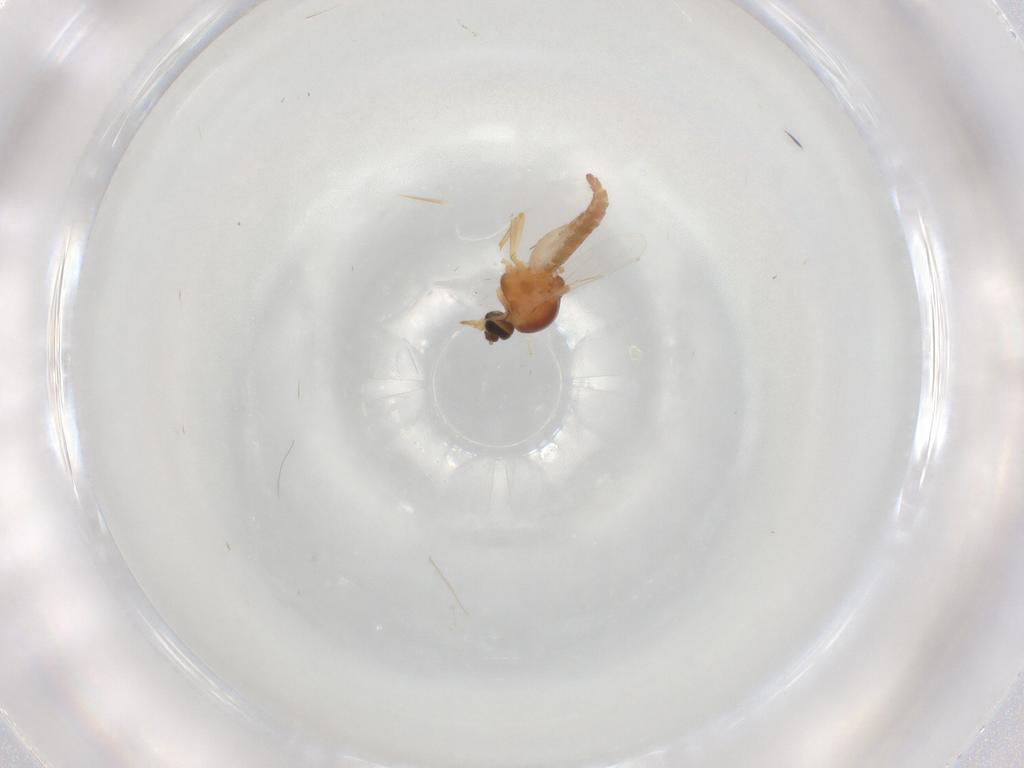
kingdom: Animalia
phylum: Arthropoda
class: Insecta
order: Diptera
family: Ceratopogonidae
